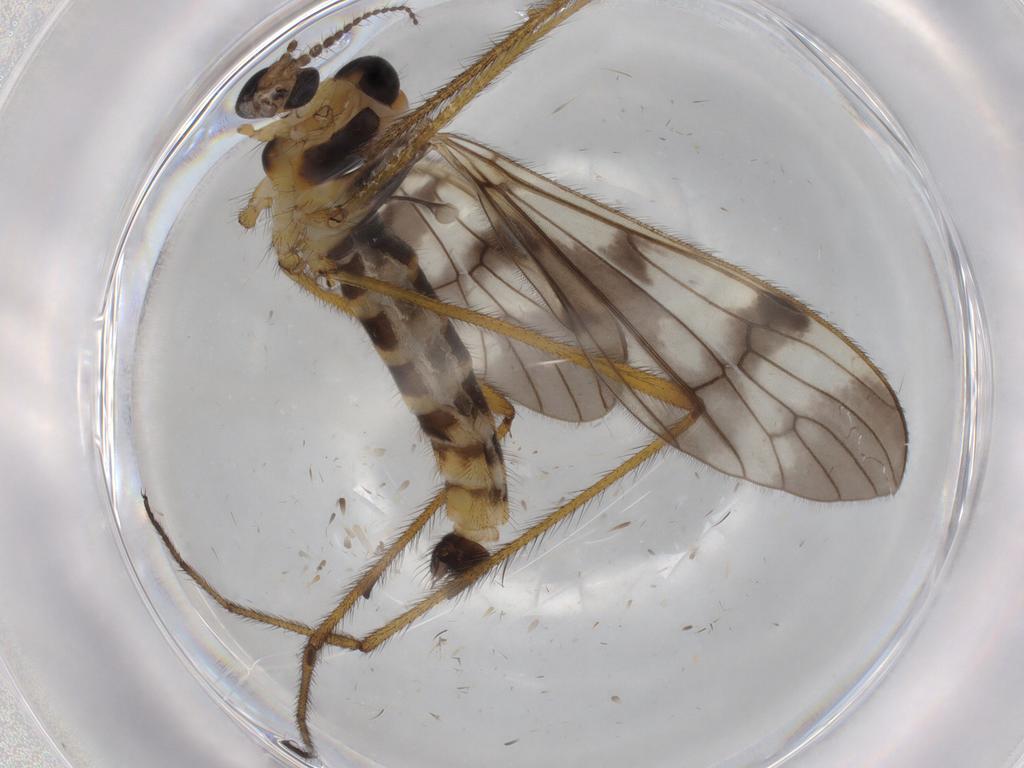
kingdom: Animalia
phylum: Arthropoda
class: Insecta
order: Diptera
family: Limoniidae
